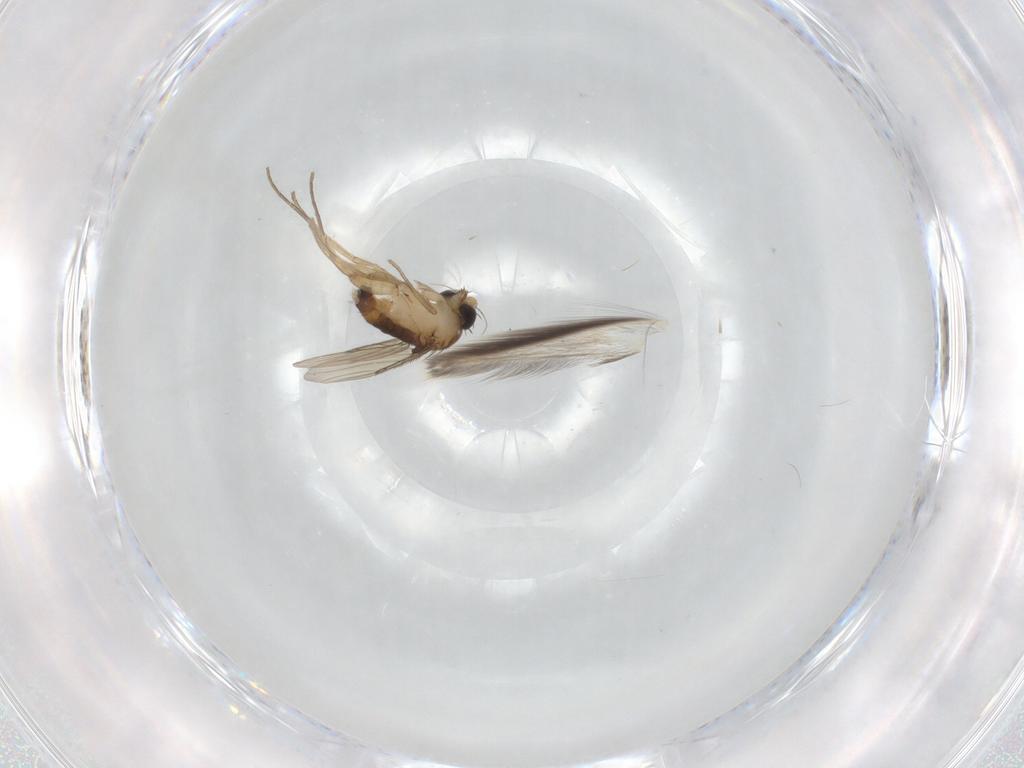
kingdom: Animalia
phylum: Arthropoda
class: Insecta
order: Diptera
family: Phoridae
